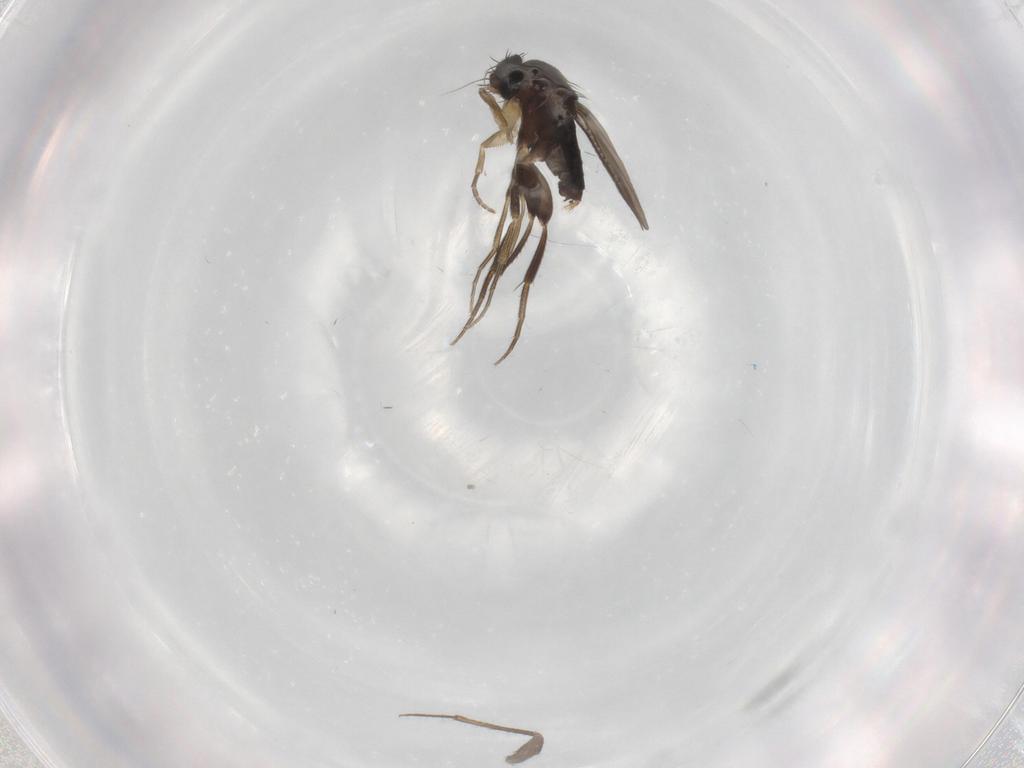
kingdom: Animalia
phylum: Arthropoda
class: Insecta
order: Diptera
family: Phoridae
